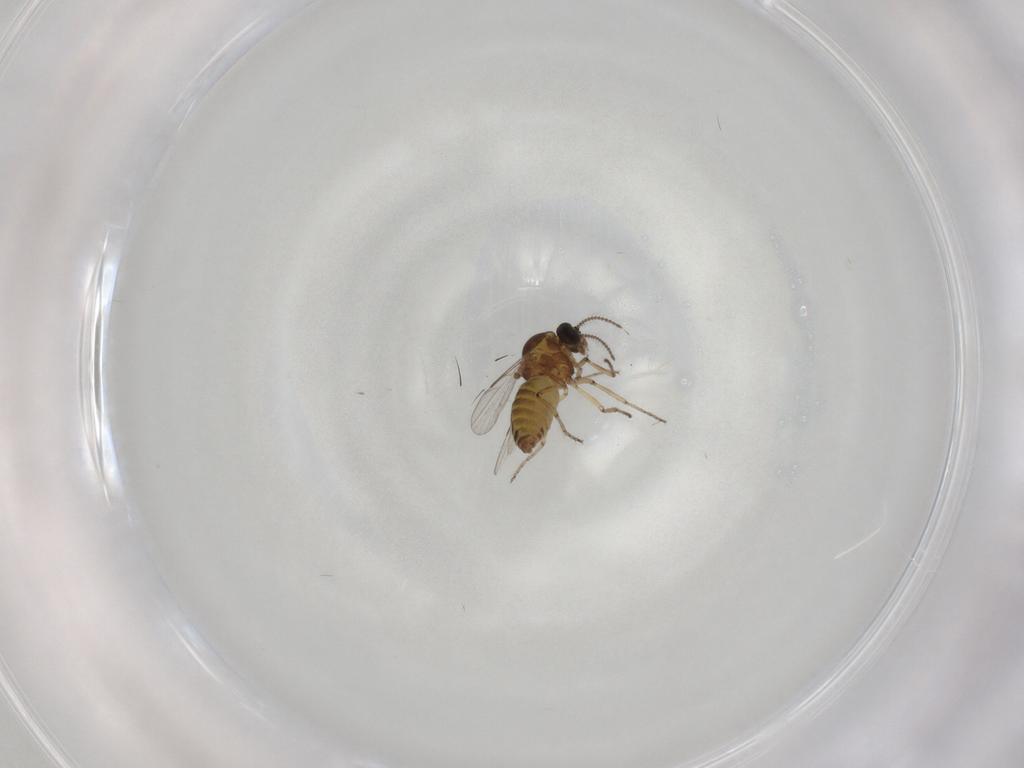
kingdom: Animalia
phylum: Arthropoda
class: Insecta
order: Diptera
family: Ceratopogonidae
